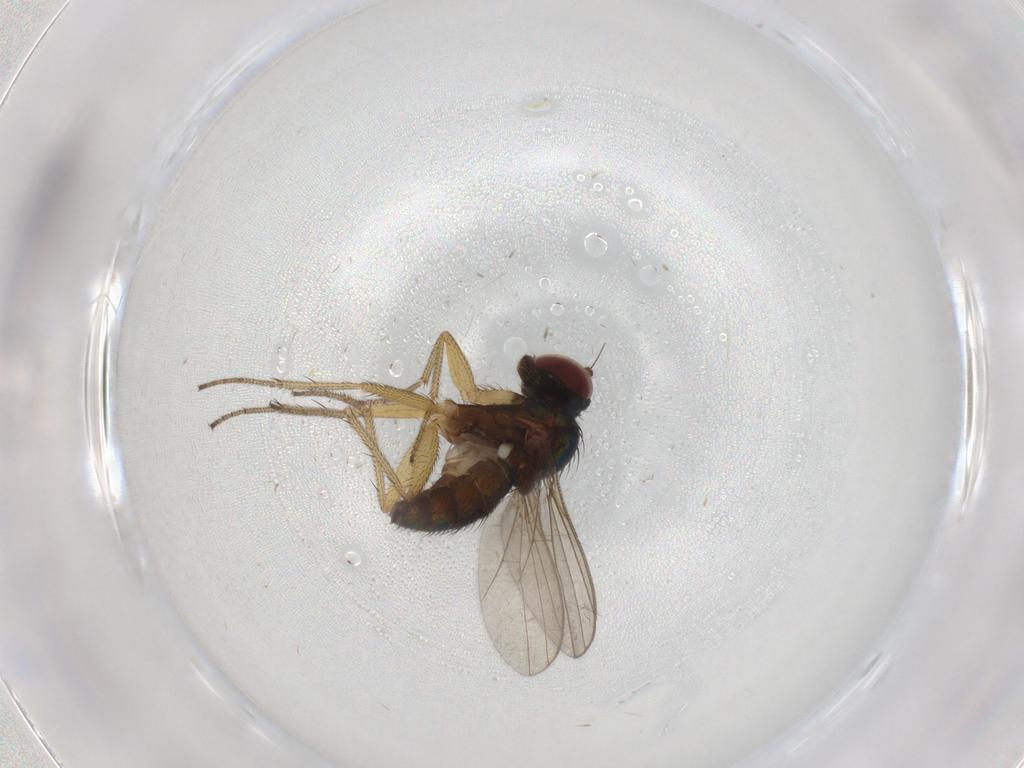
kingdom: Animalia
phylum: Arthropoda
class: Insecta
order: Diptera
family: Chironomidae
